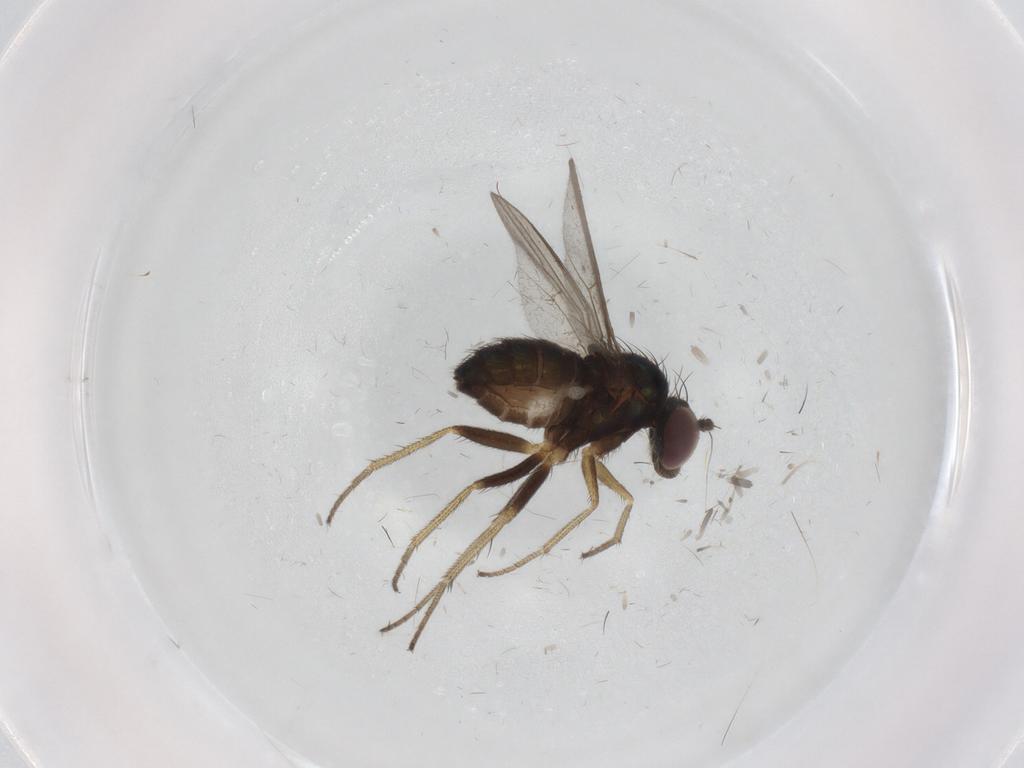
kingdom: Animalia
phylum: Arthropoda
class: Insecta
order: Diptera
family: Dolichopodidae
